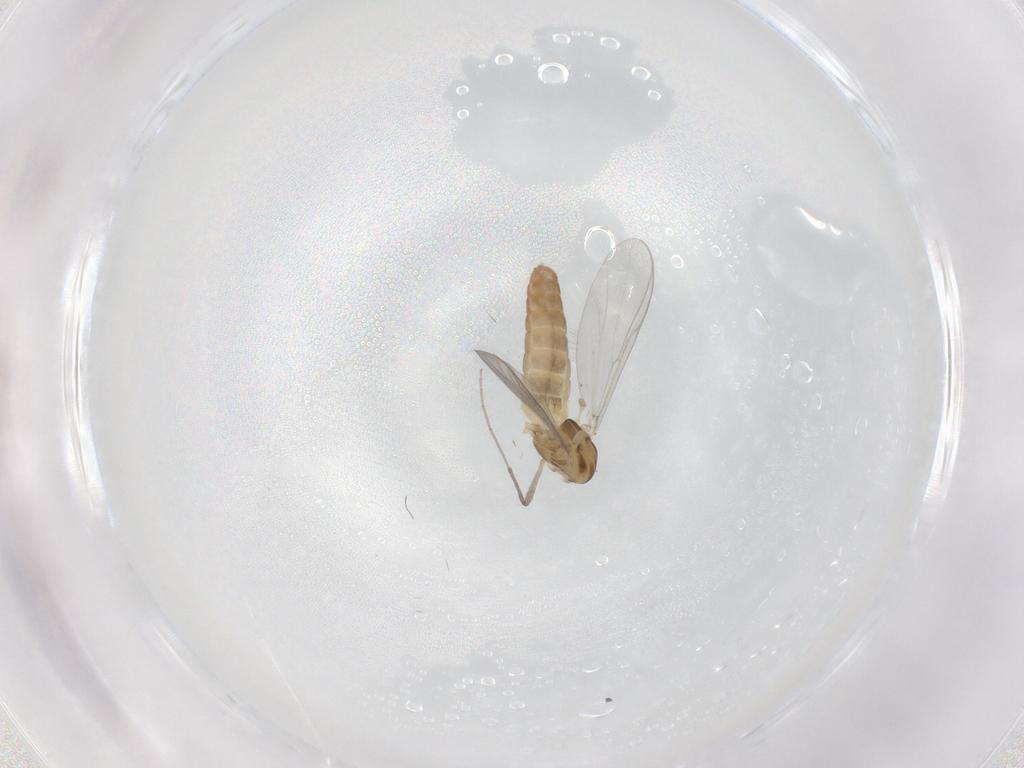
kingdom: Animalia
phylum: Arthropoda
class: Insecta
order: Diptera
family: Chironomidae
